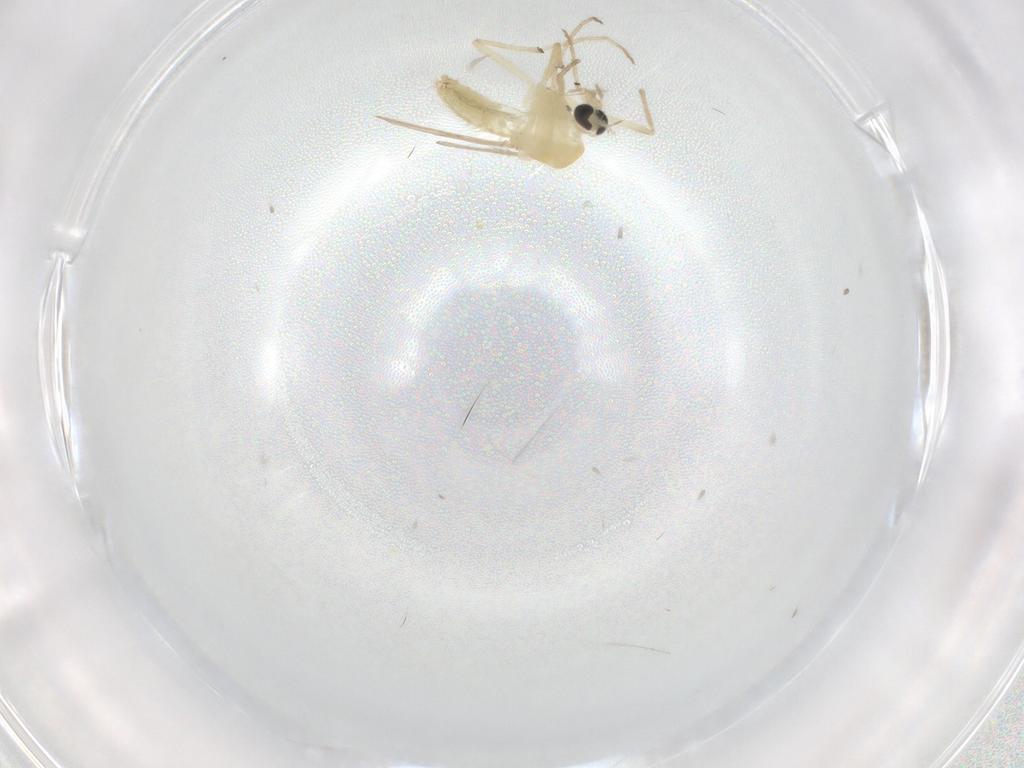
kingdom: Animalia
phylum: Arthropoda
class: Insecta
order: Diptera
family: Chironomidae
